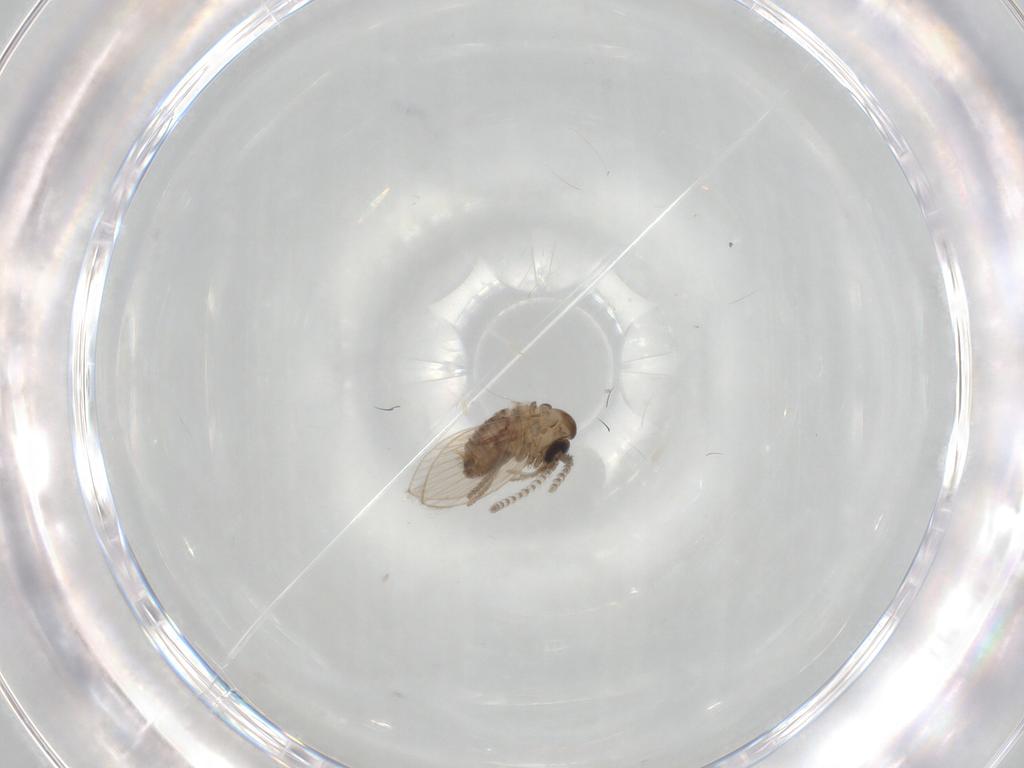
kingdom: Animalia
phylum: Arthropoda
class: Insecta
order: Diptera
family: Psychodidae
